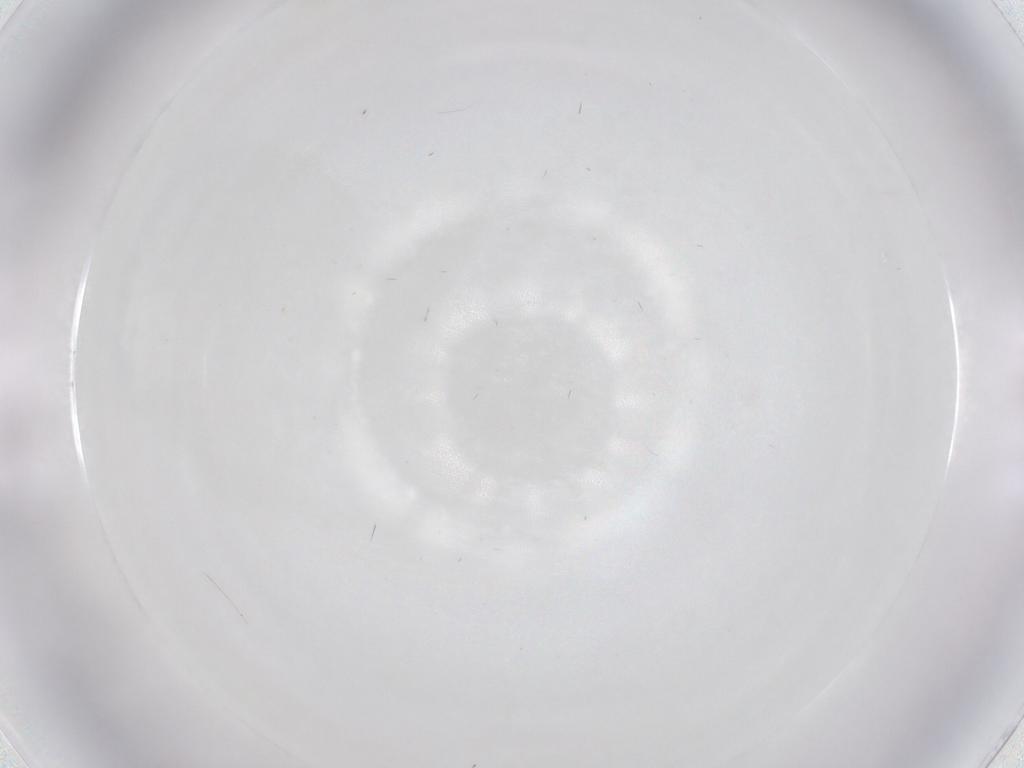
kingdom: Animalia
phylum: Arthropoda
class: Insecta
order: Hymenoptera
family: Scelionidae
